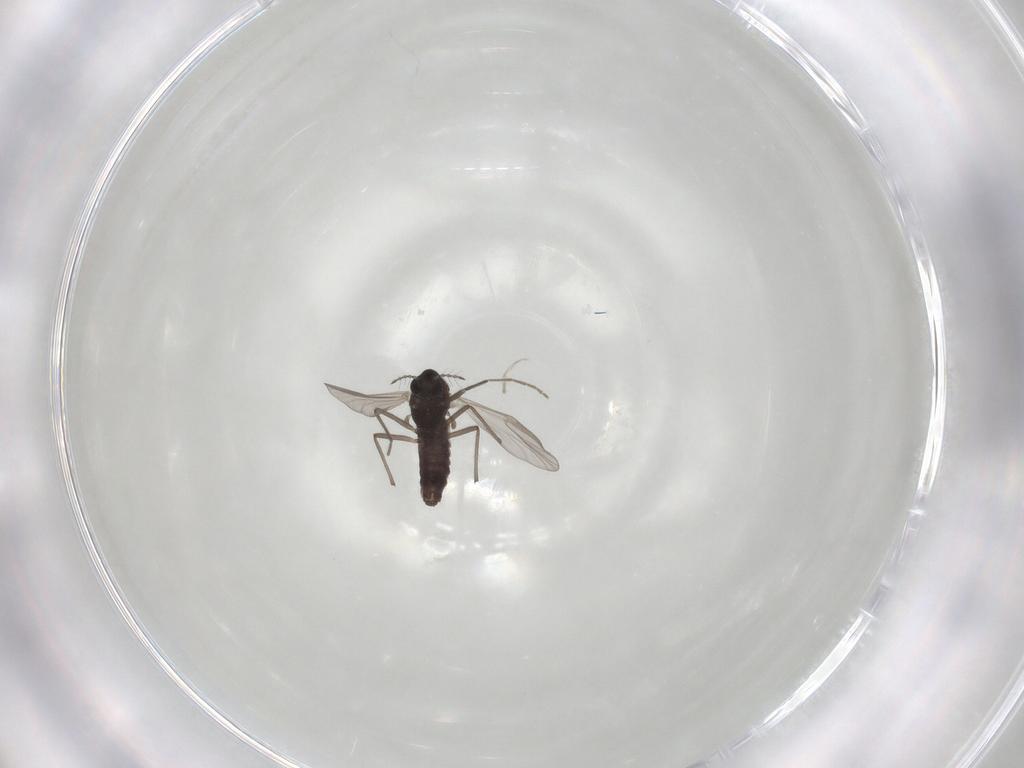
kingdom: Animalia
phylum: Arthropoda
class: Insecta
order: Diptera
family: Chironomidae
